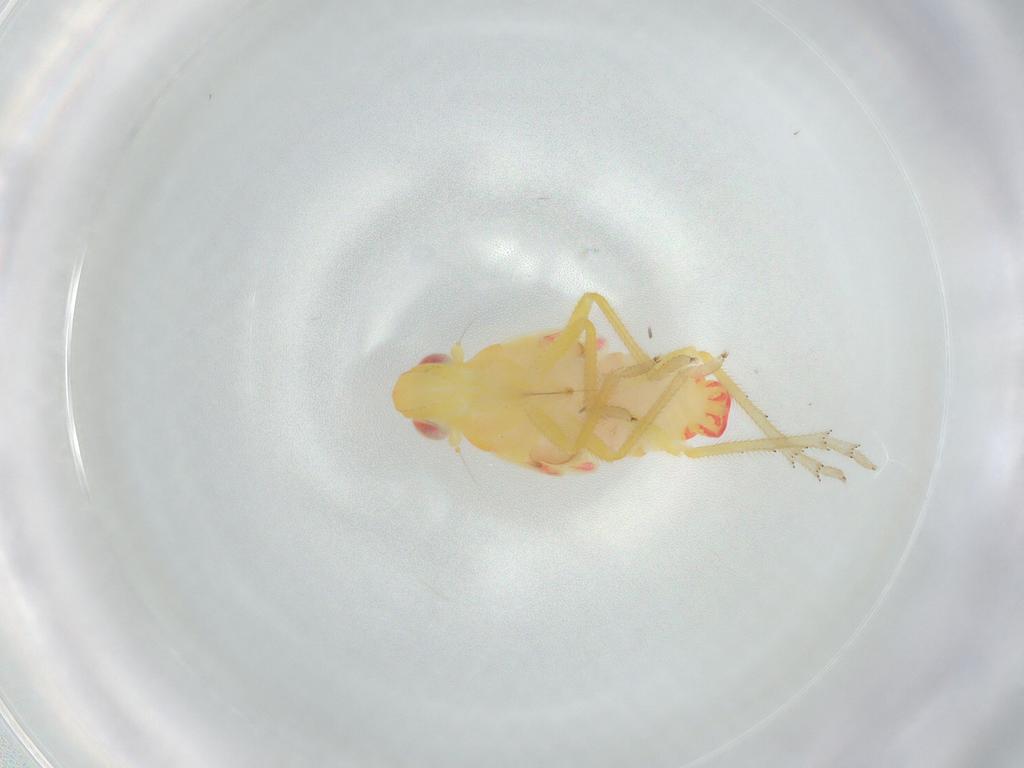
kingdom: Animalia
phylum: Arthropoda
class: Insecta
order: Hemiptera
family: Tropiduchidae
